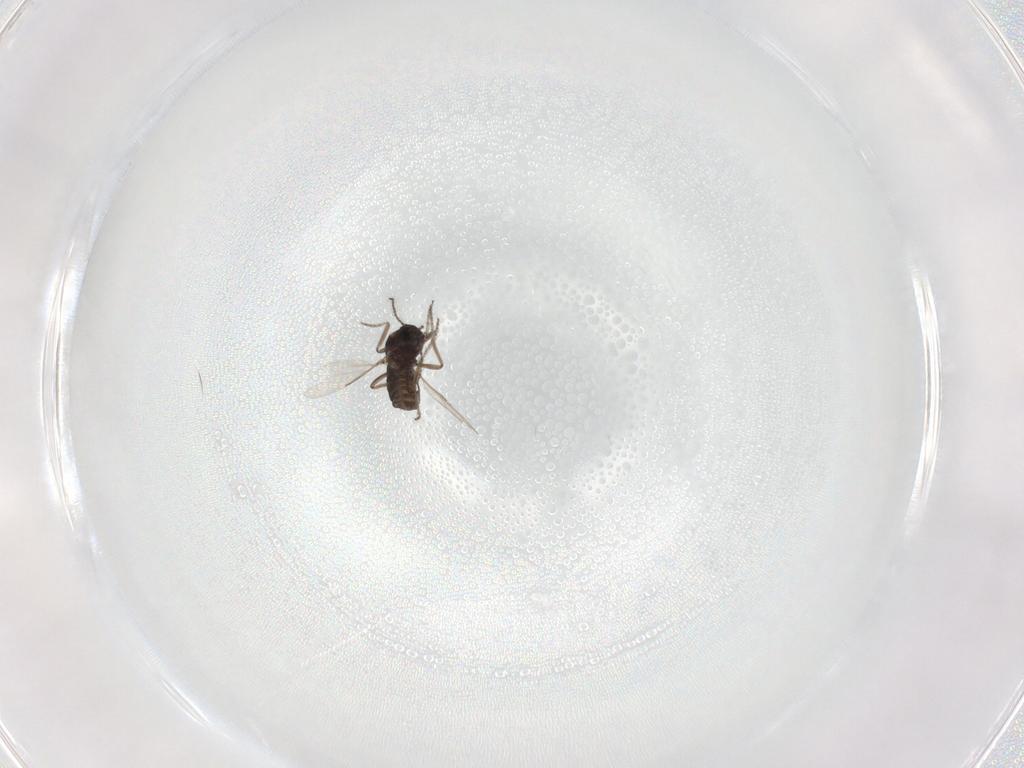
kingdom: Animalia
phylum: Arthropoda
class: Insecta
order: Diptera
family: Ceratopogonidae
